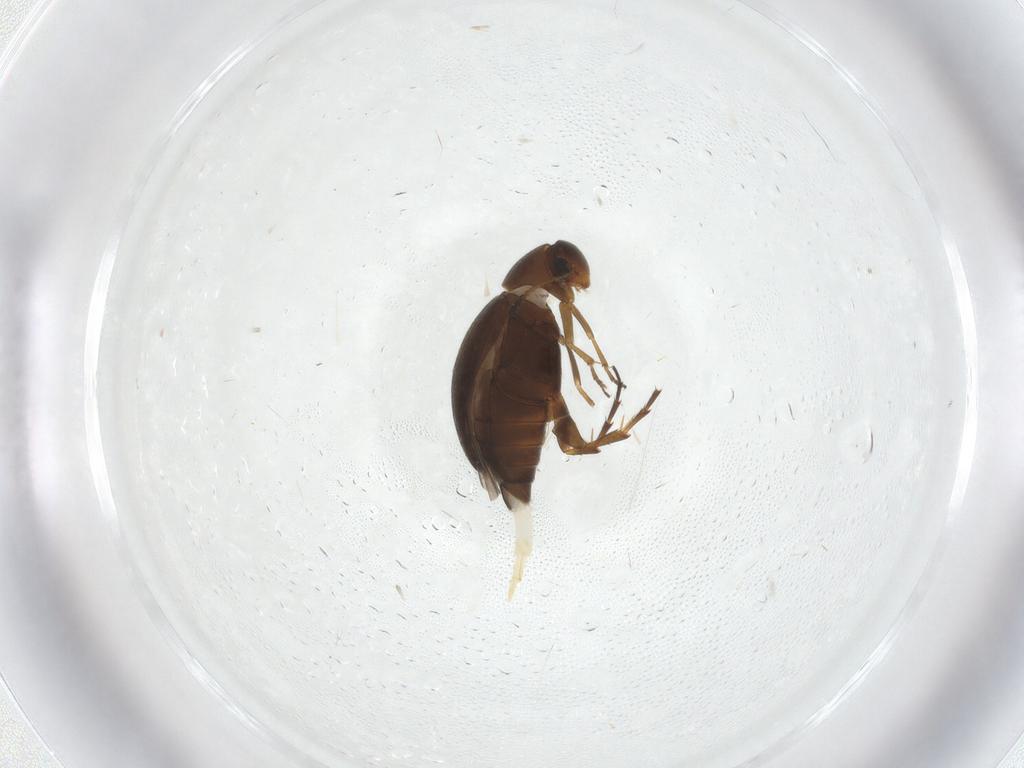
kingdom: Animalia
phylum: Arthropoda
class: Insecta
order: Coleoptera
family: Scraptiidae
